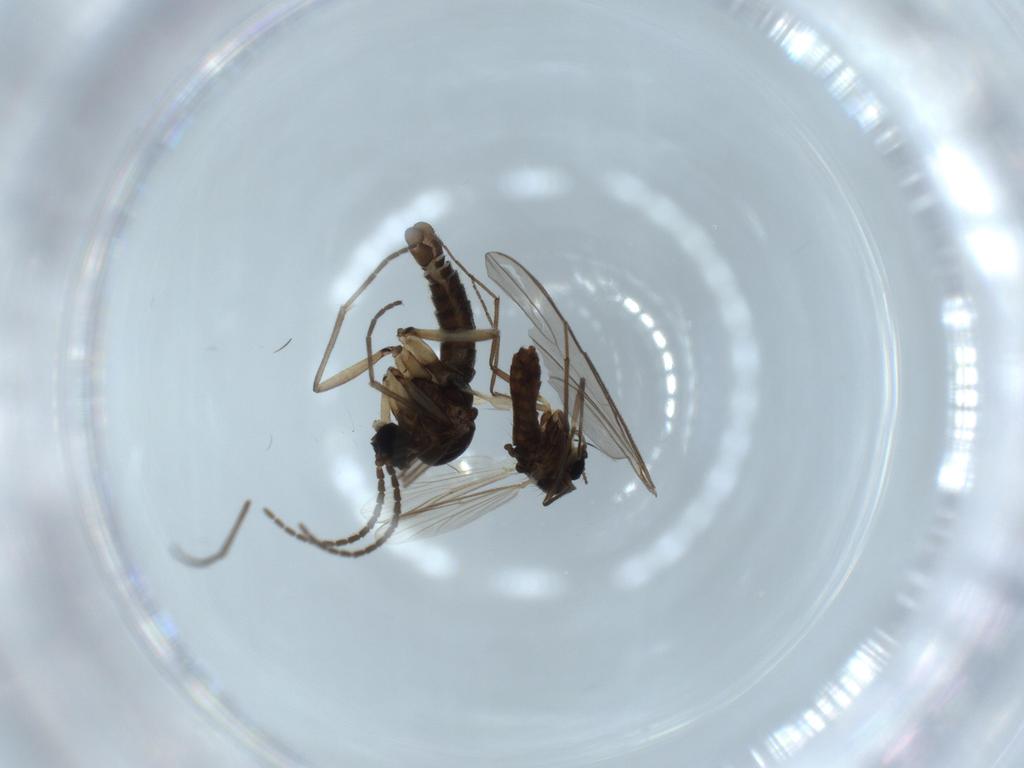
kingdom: Animalia
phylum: Arthropoda
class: Insecta
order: Diptera
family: Sciaridae
